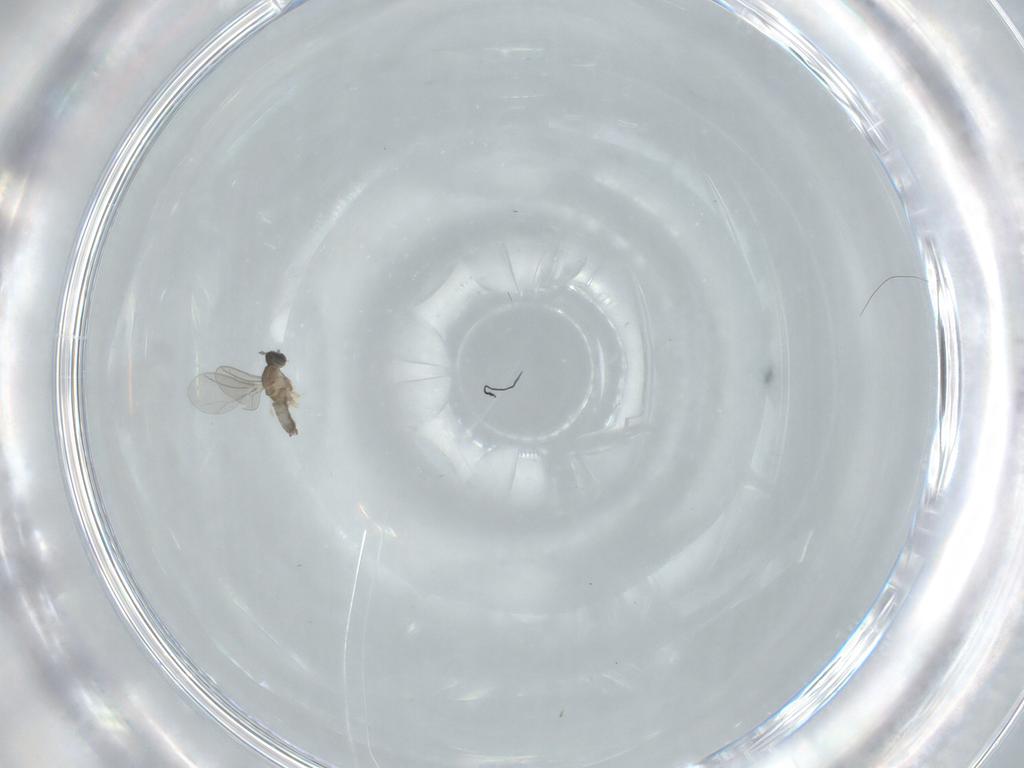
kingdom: Animalia
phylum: Arthropoda
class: Insecta
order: Diptera
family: Cecidomyiidae
